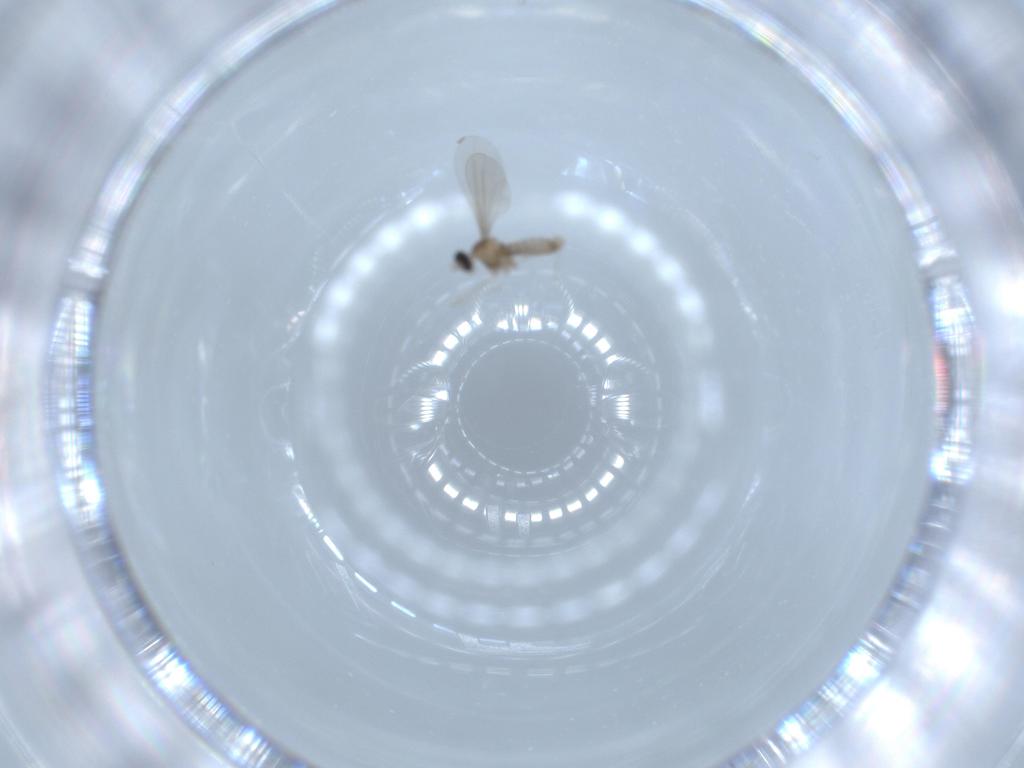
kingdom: Animalia
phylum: Arthropoda
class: Insecta
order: Diptera
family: Cecidomyiidae
